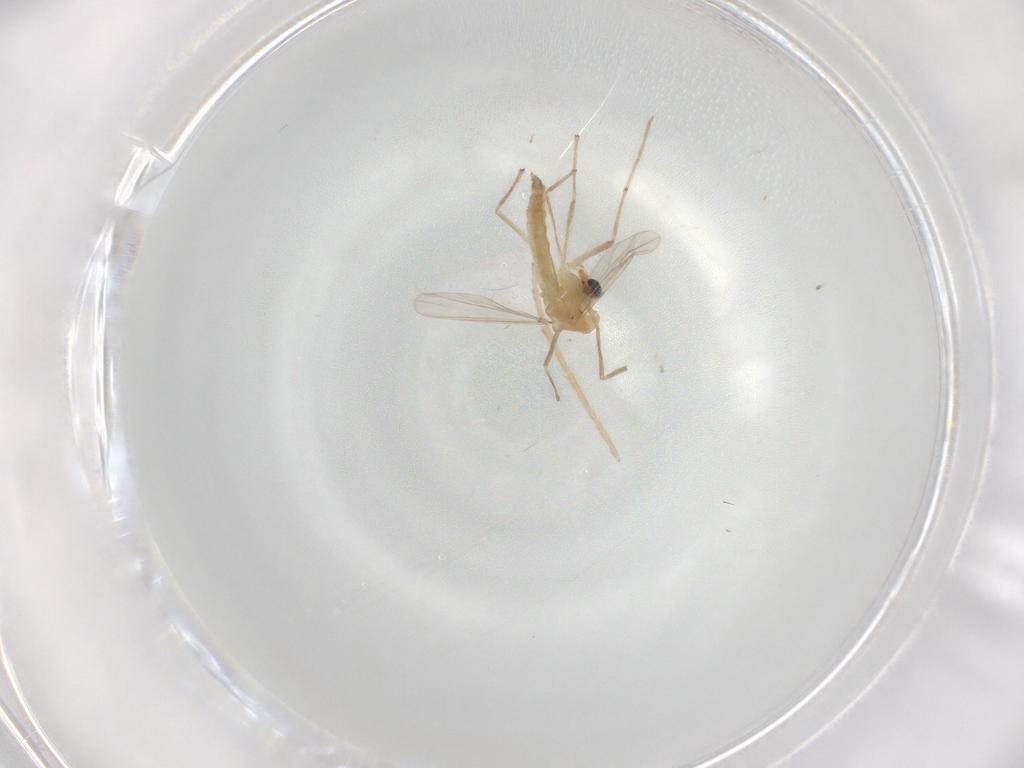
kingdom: Animalia
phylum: Arthropoda
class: Insecta
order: Diptera
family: Chironomidae
